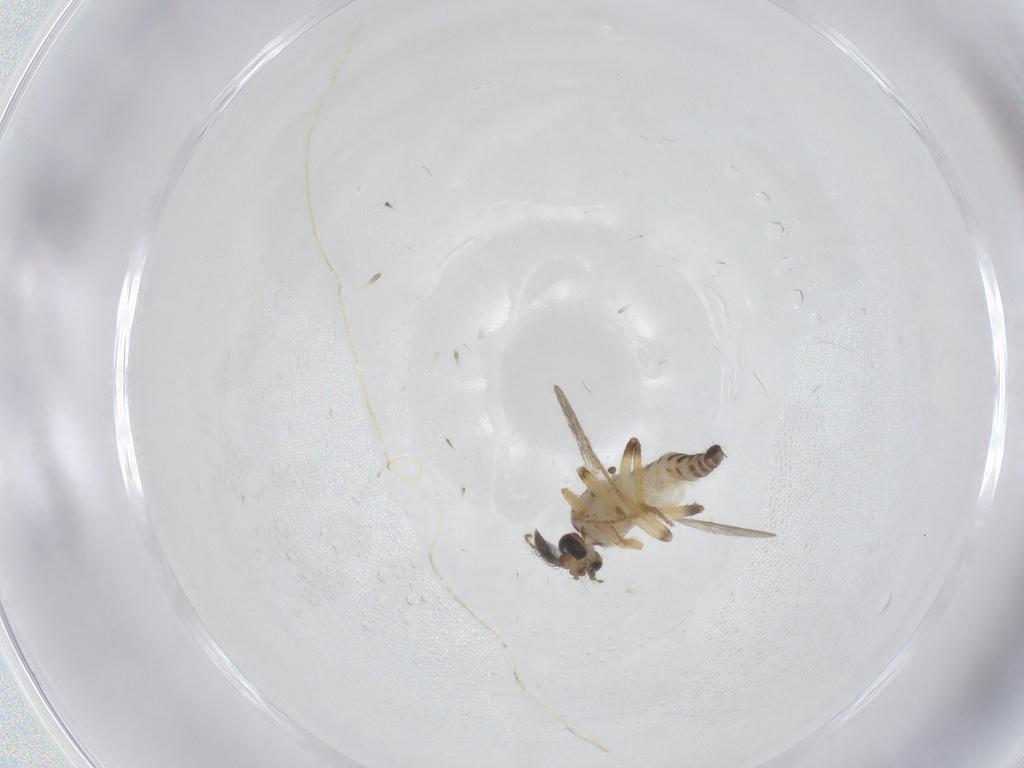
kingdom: Animalia
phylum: Arthropoda
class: Insecta
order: Diptera
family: Ceratopogonidae
